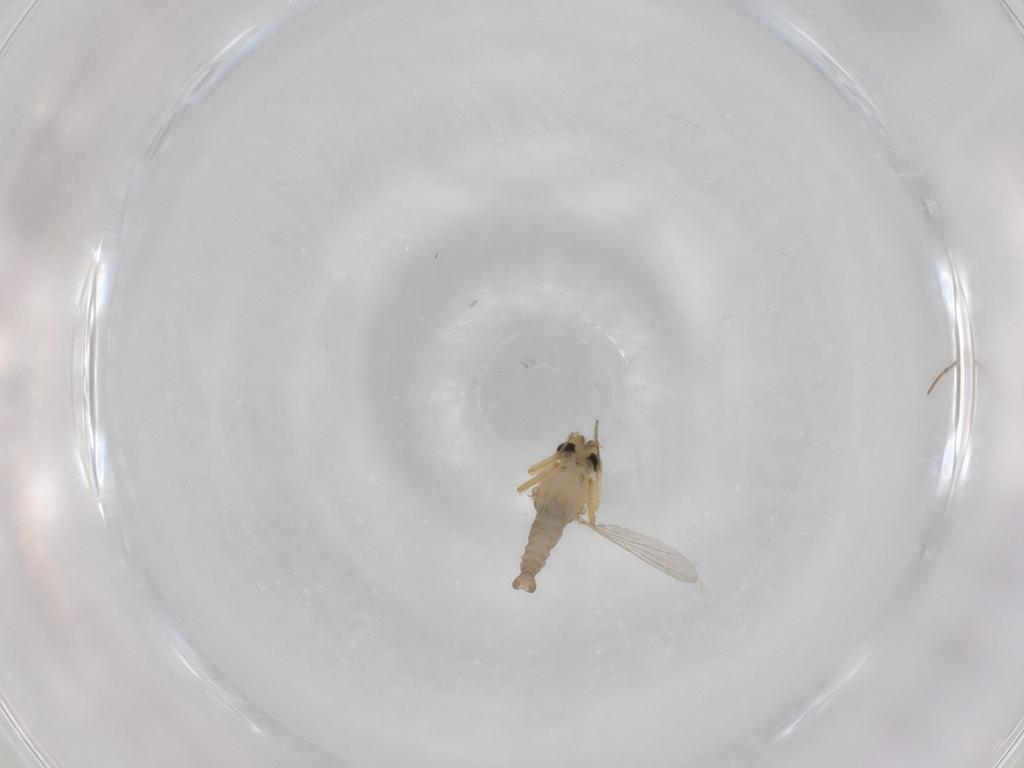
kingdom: Animalia
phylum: Arthropoda
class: Insecta
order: Diptera
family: Ceratopogonidae
